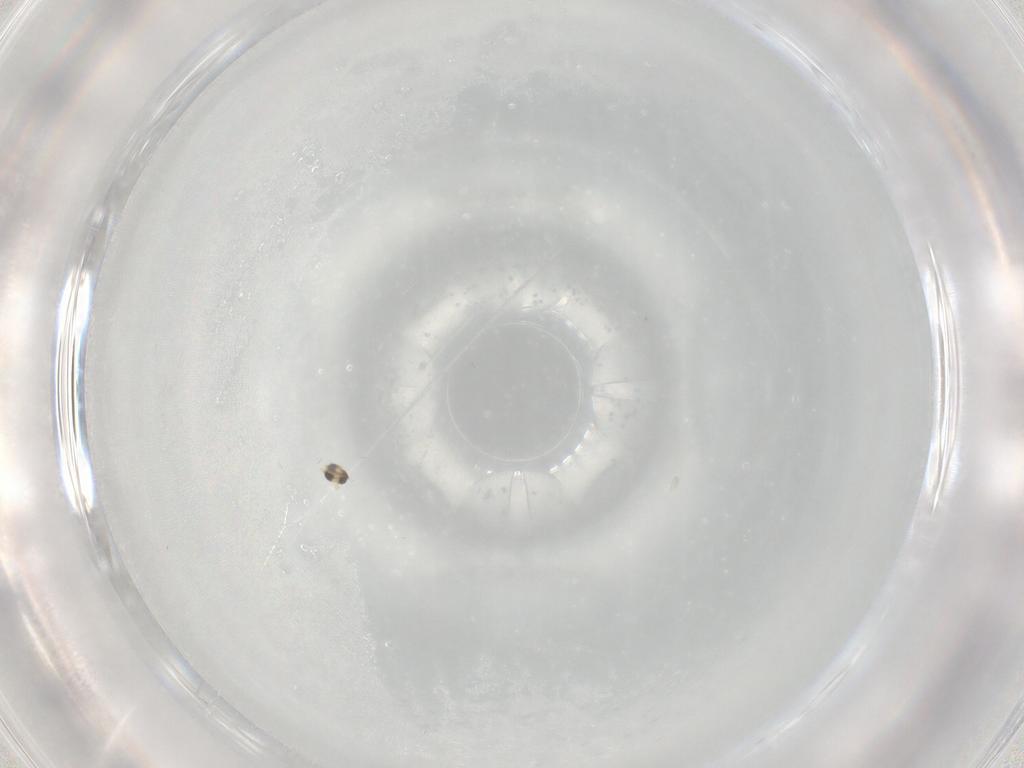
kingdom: Animalia
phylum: Arthropoda
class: Insecta
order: Diptera
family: Cecidomyiidae
